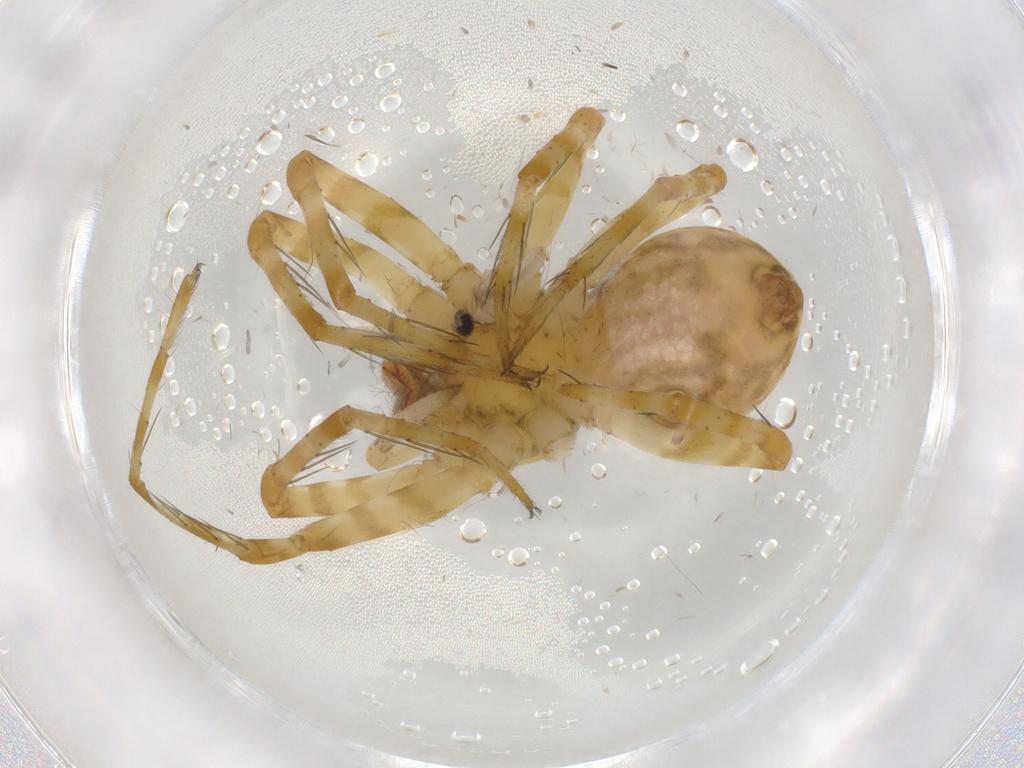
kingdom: Animalia
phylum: Arthropoda
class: Insecta
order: Diptera
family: Cecidomyiidae
